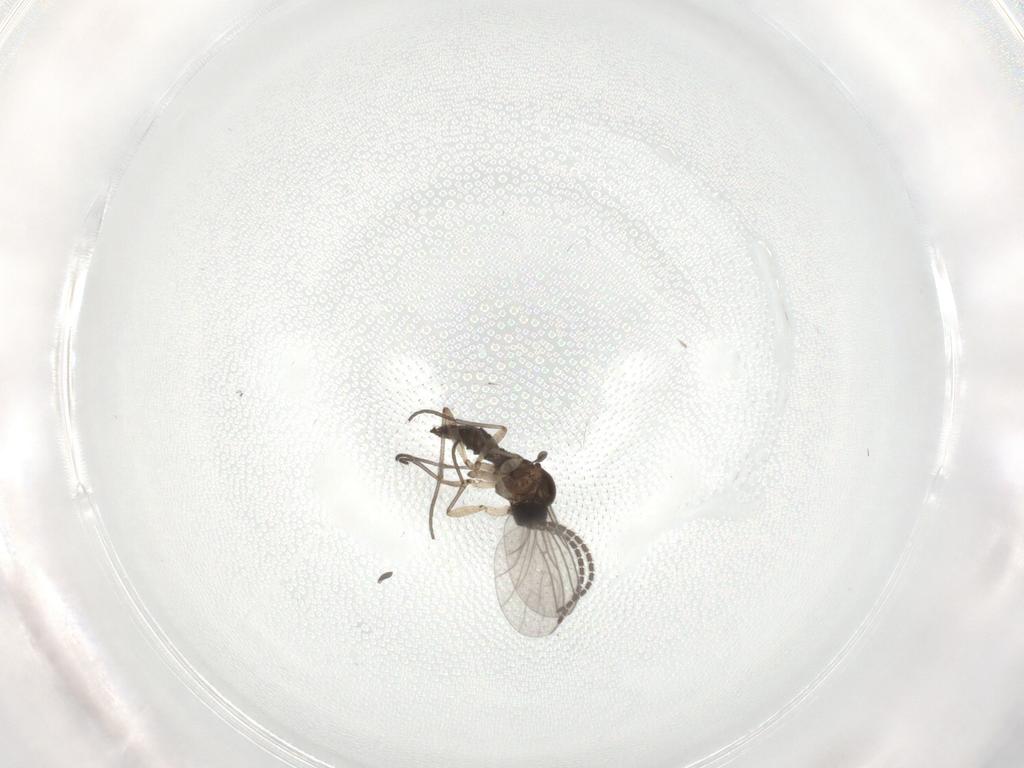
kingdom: Animalia
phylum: Arthropoda
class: Insecta
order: Diptera
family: Sciaridae
